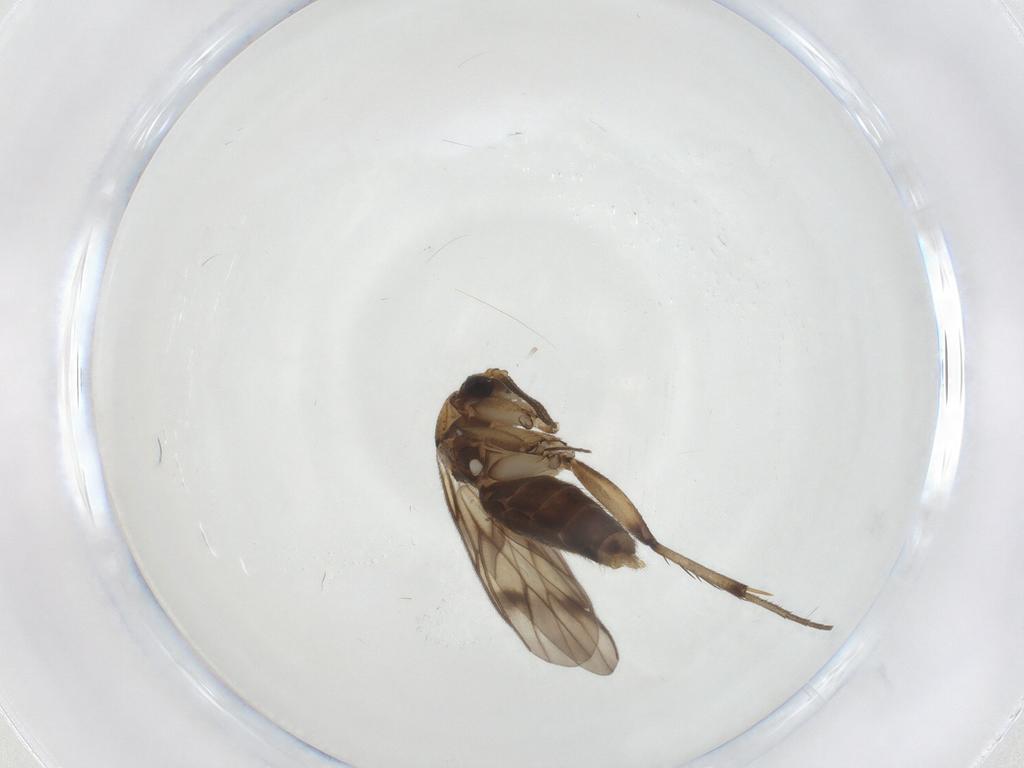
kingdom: Animalia
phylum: Arthropoda
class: Insecta
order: Diptera
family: Mycetophilidae
